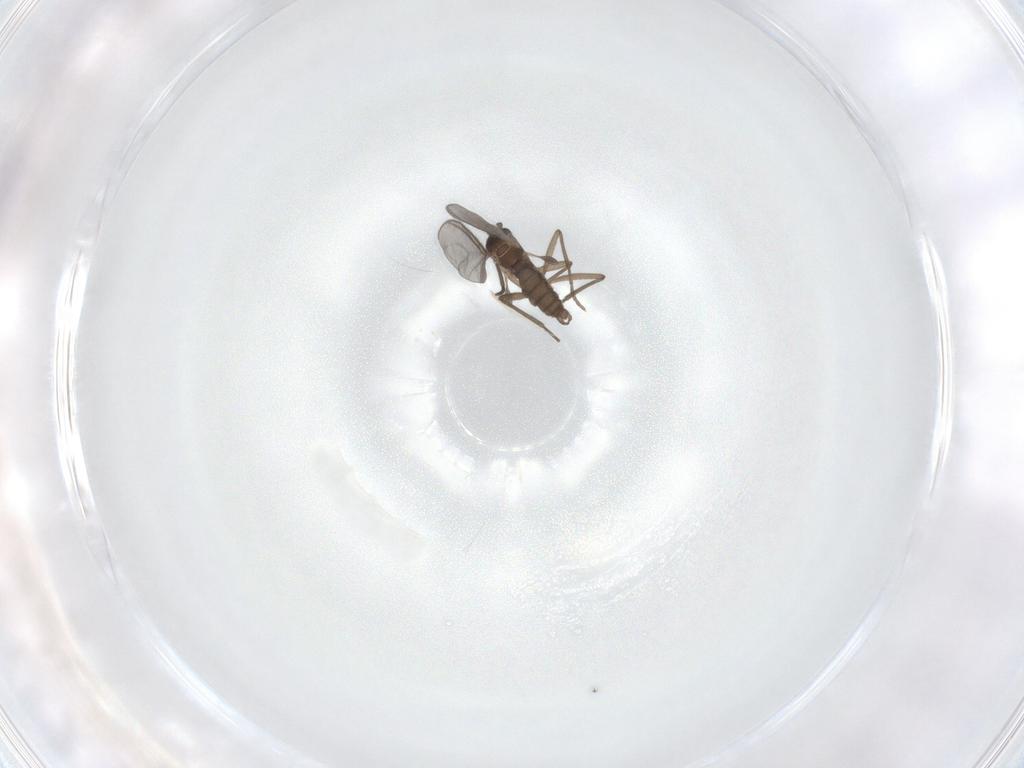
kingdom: Animalia
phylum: Arthropoda
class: Insecta
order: Diptera
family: Sciaridae
